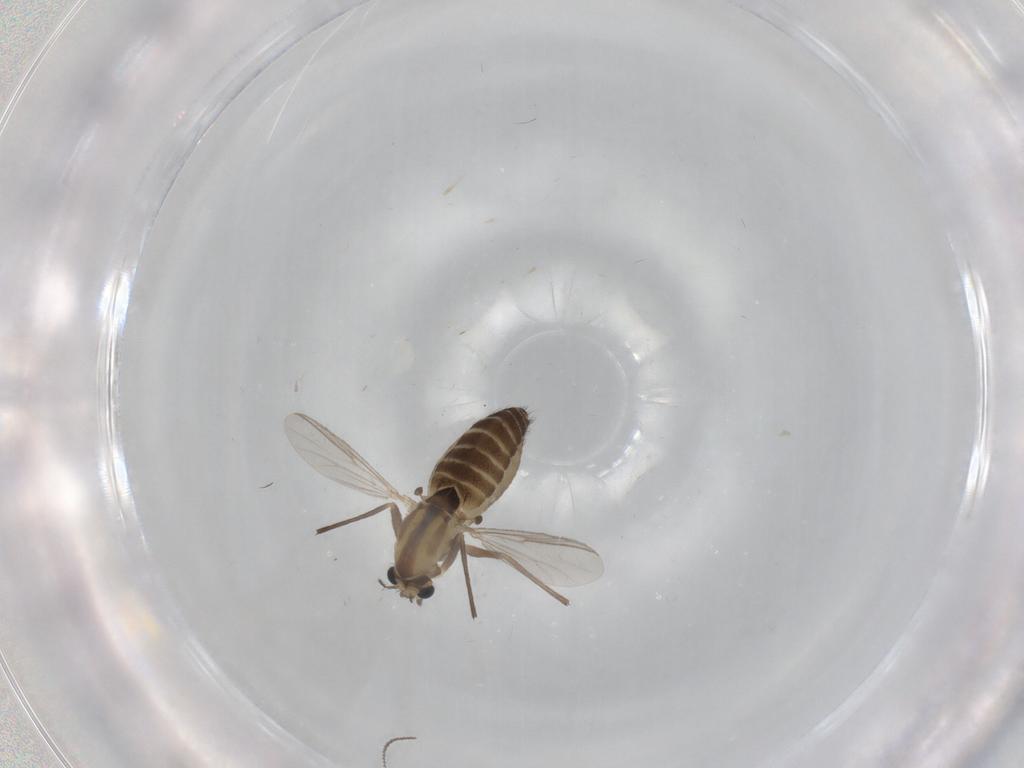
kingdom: Animalia
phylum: Arthropoda
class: Insecta
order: Diptera
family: Chironomidae
